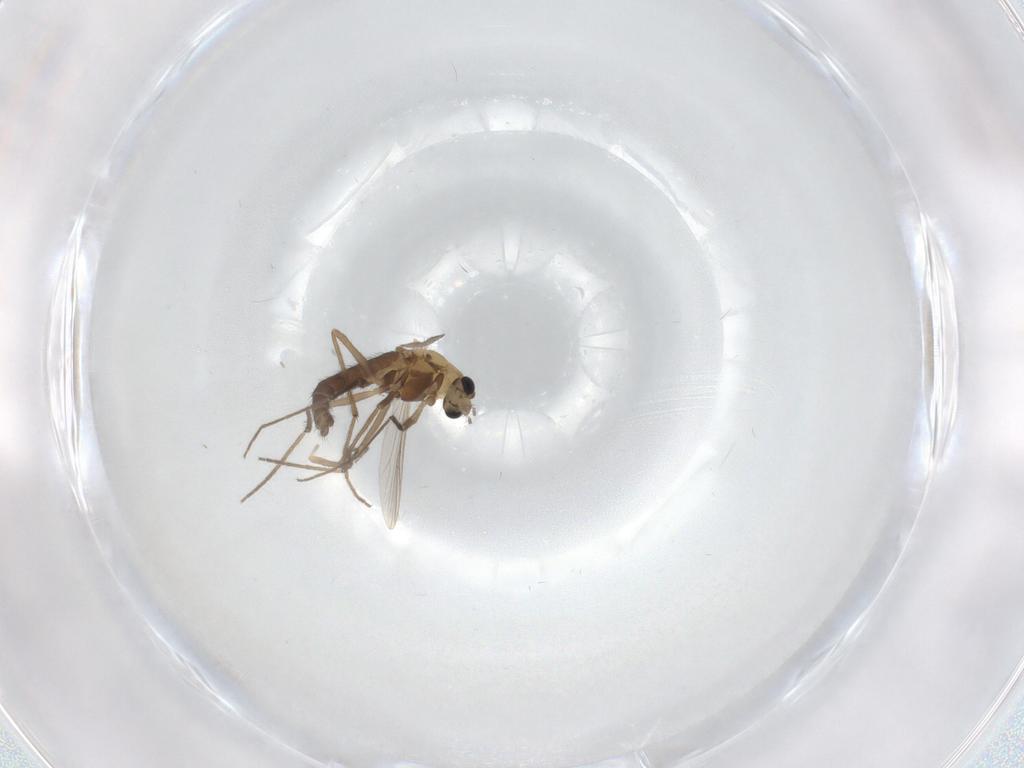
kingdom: Animalia
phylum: Arthropoda
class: Insecta
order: Diptera
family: Chironomidae
